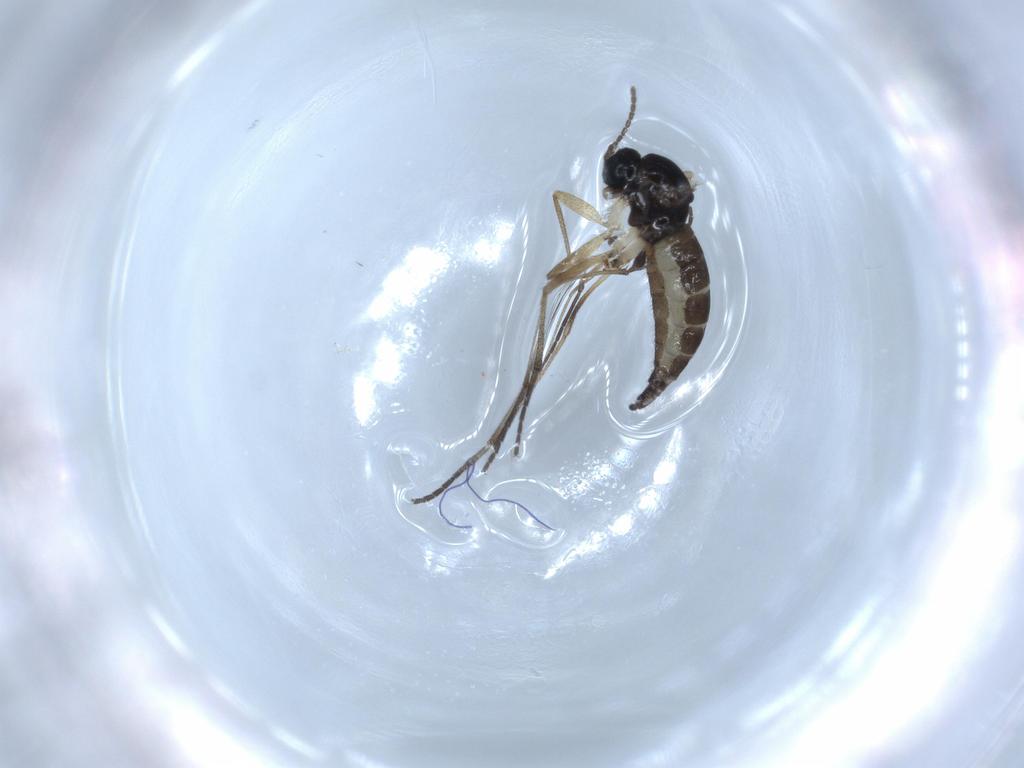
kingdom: Animalia
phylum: Arthropoda
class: Insecta
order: Diptera
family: Sciaridae
